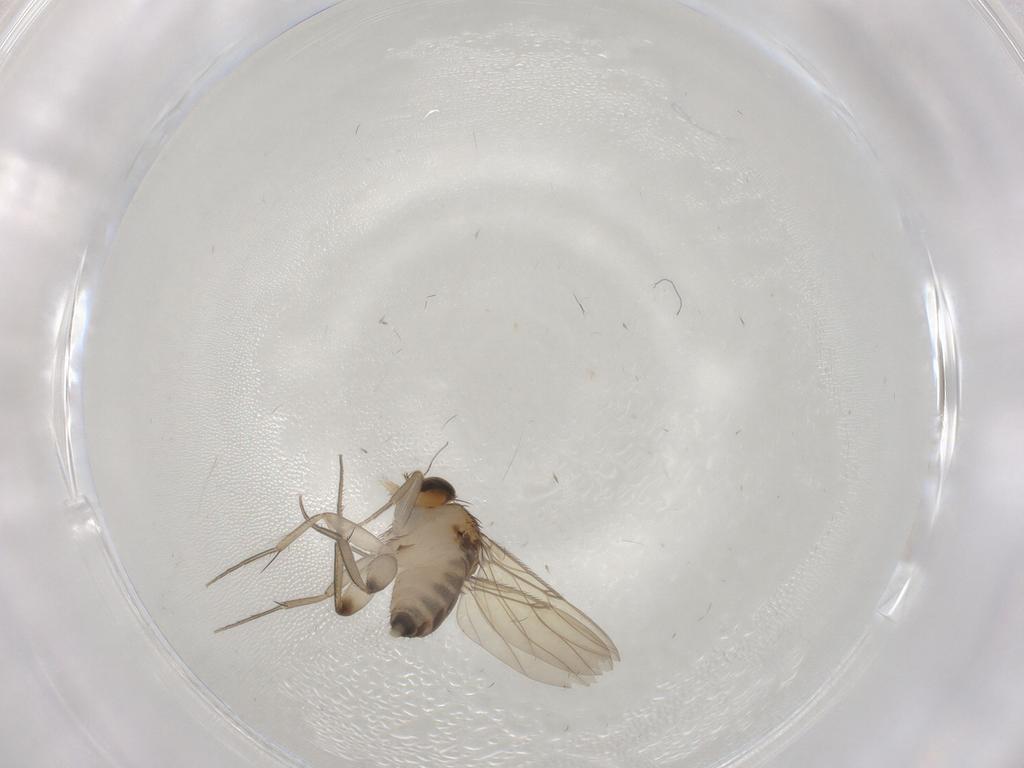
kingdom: Animalia
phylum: Arthropoda
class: Insecta
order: Diptera
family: Phoridae
